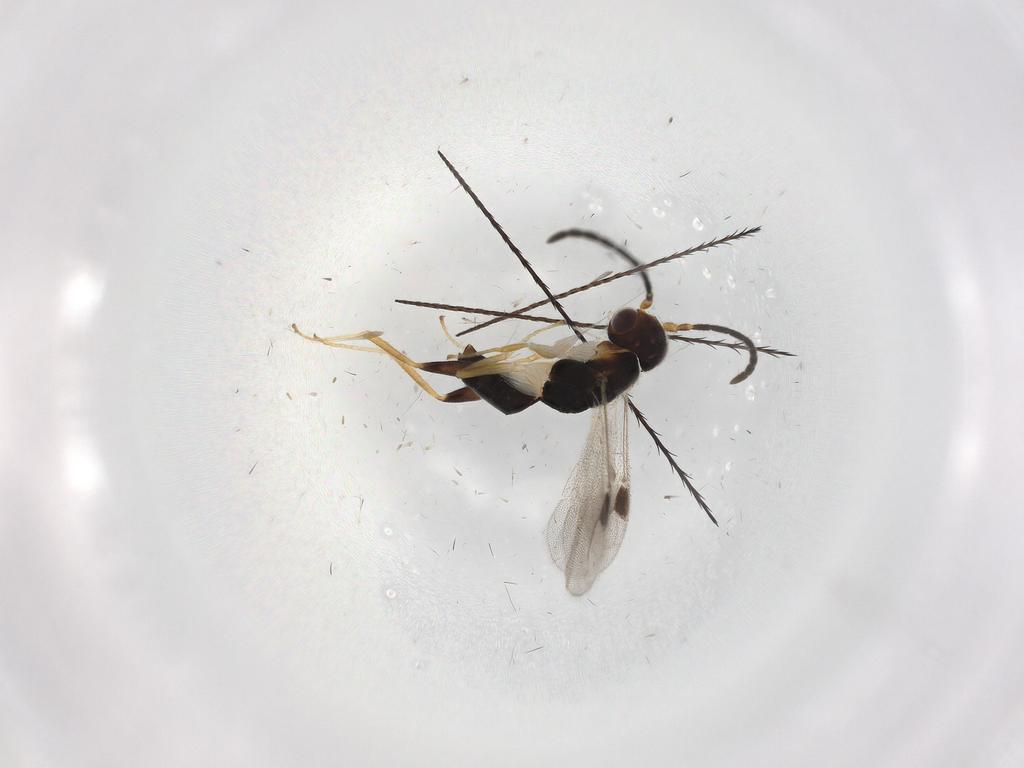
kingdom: Animalia
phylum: Arthropoda
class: Insecta
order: Hymenoptera
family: Dryinidae
